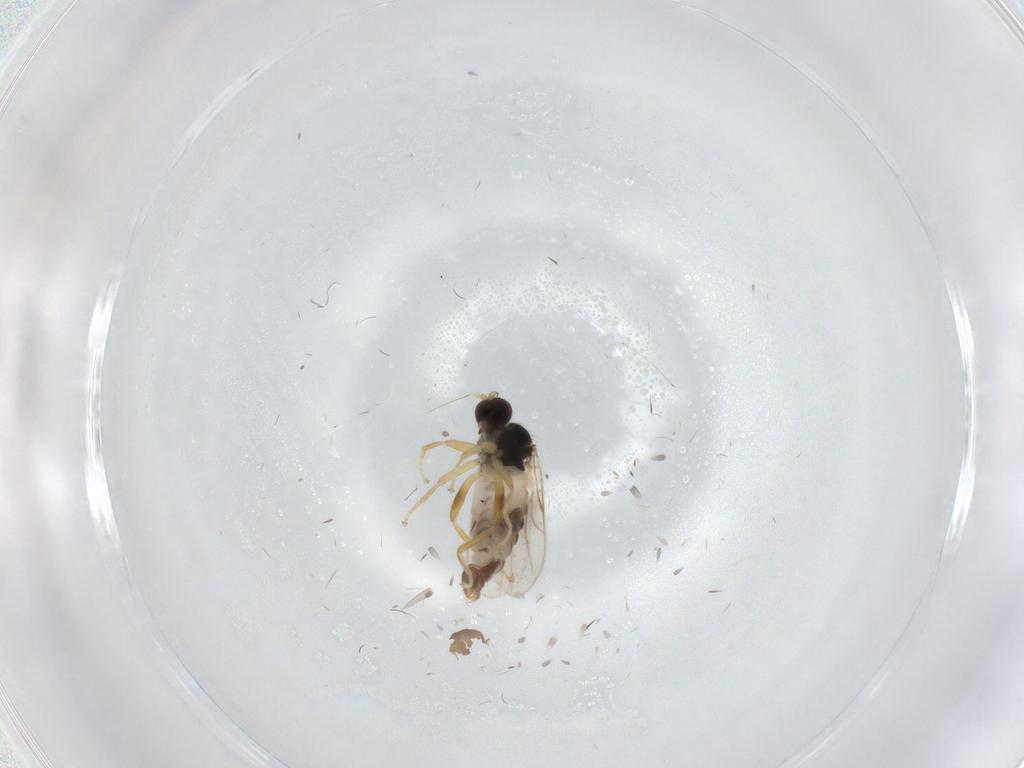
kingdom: Animalia
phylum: Arthropoda
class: Insecta
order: Diptera
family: Hybotidae
